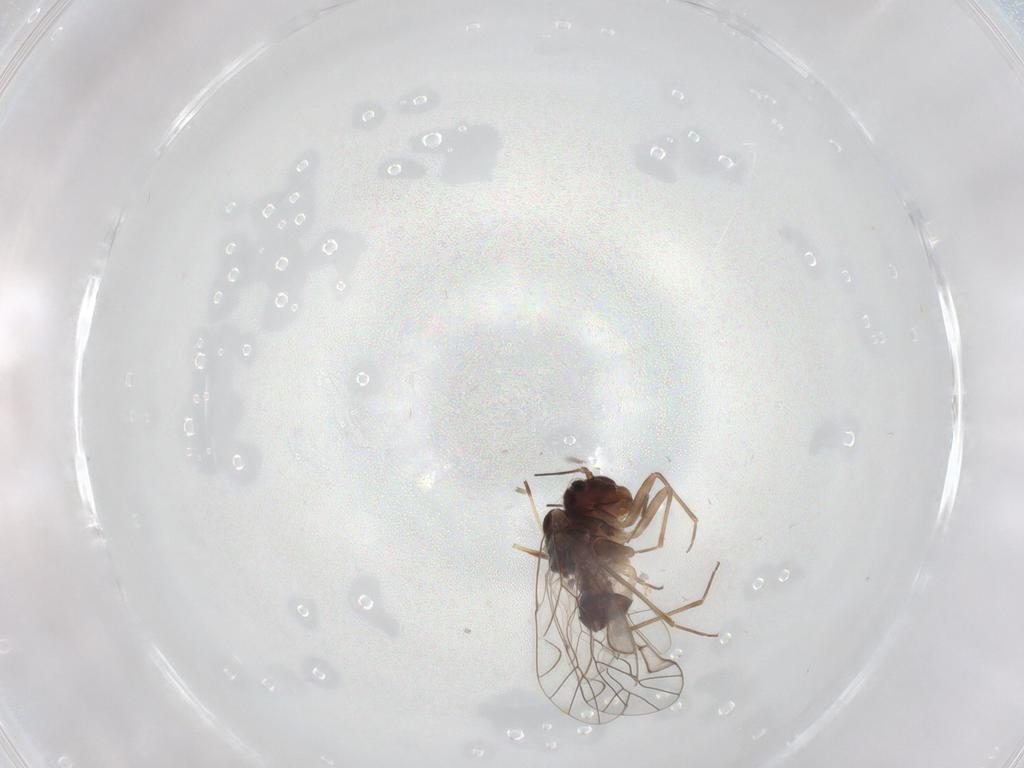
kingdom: Animalia
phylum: Arthropoda
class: Insecta
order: Psocodea
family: Lachesillidae
